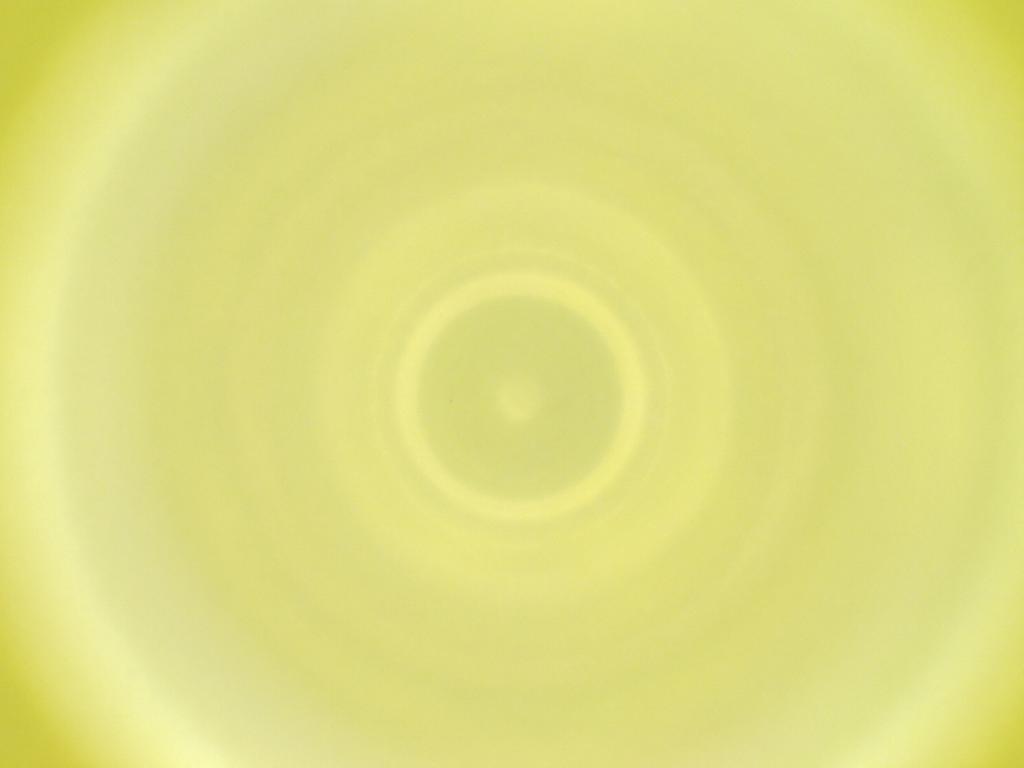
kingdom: Animalia
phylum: Arthropoda
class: Insecta
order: Diptera
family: Cecidomyiidae
